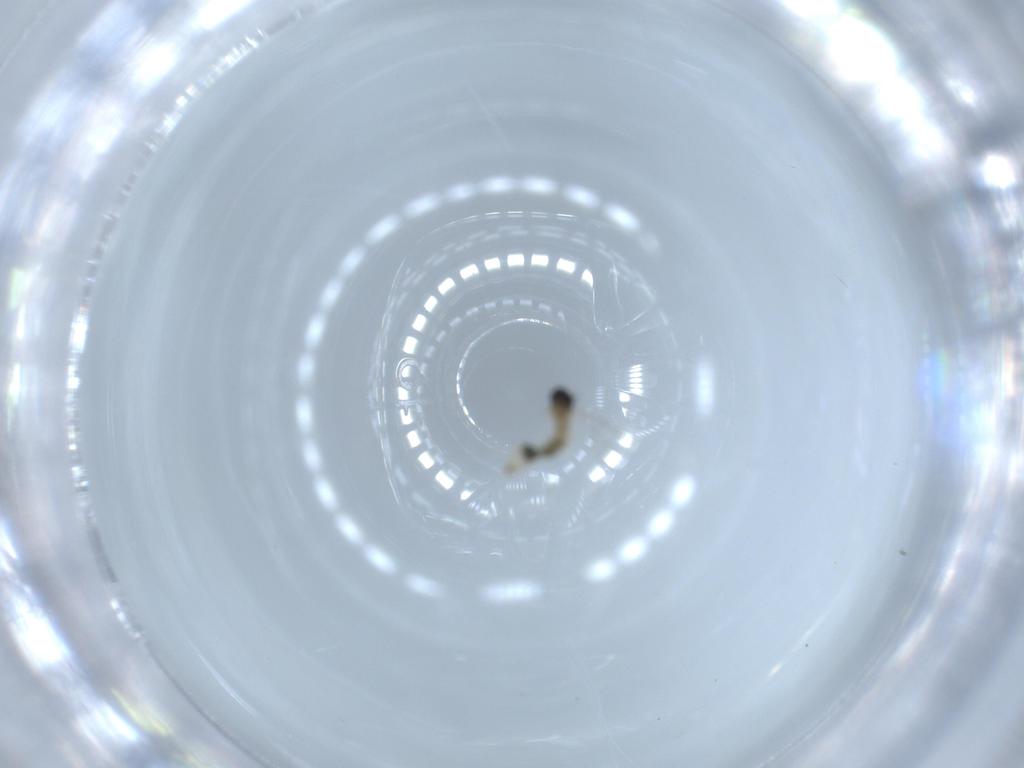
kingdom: Animalia
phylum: Arthropoda
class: Insecta
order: Diptera
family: Cecidomyiidae
